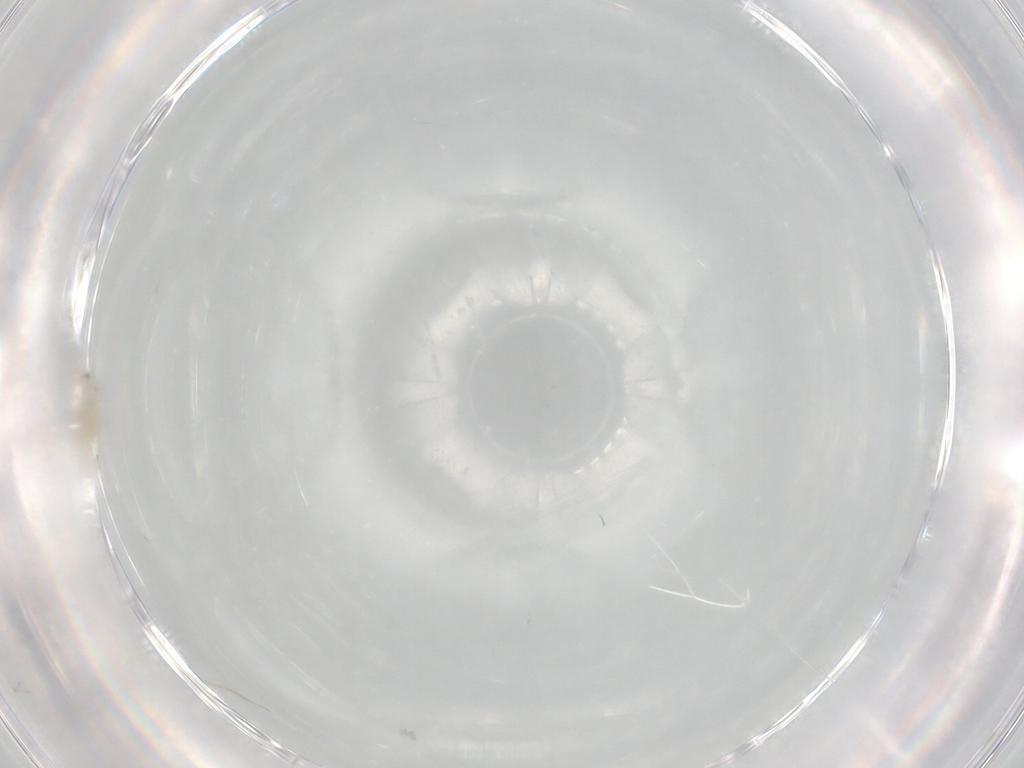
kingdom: Animalia
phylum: Arthropoda
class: Insecta
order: Diptera
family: Cecidomyiidae
